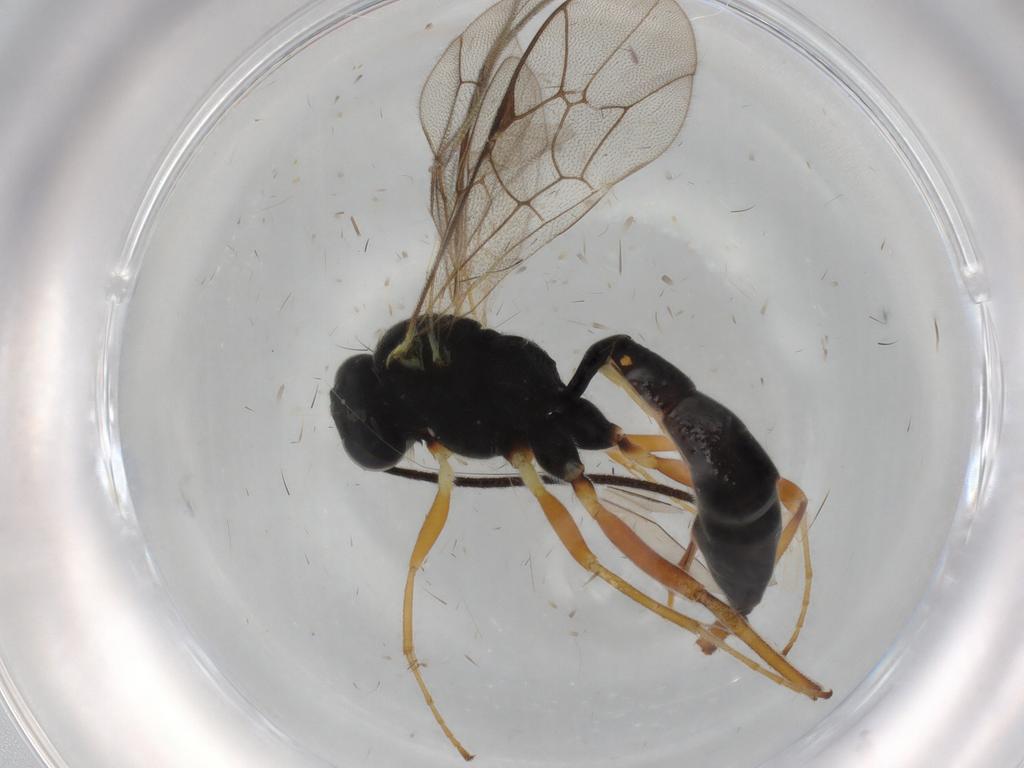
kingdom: Animalia
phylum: Arthropoda
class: Insecta
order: Hymenoptera
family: Ichneumonidae
